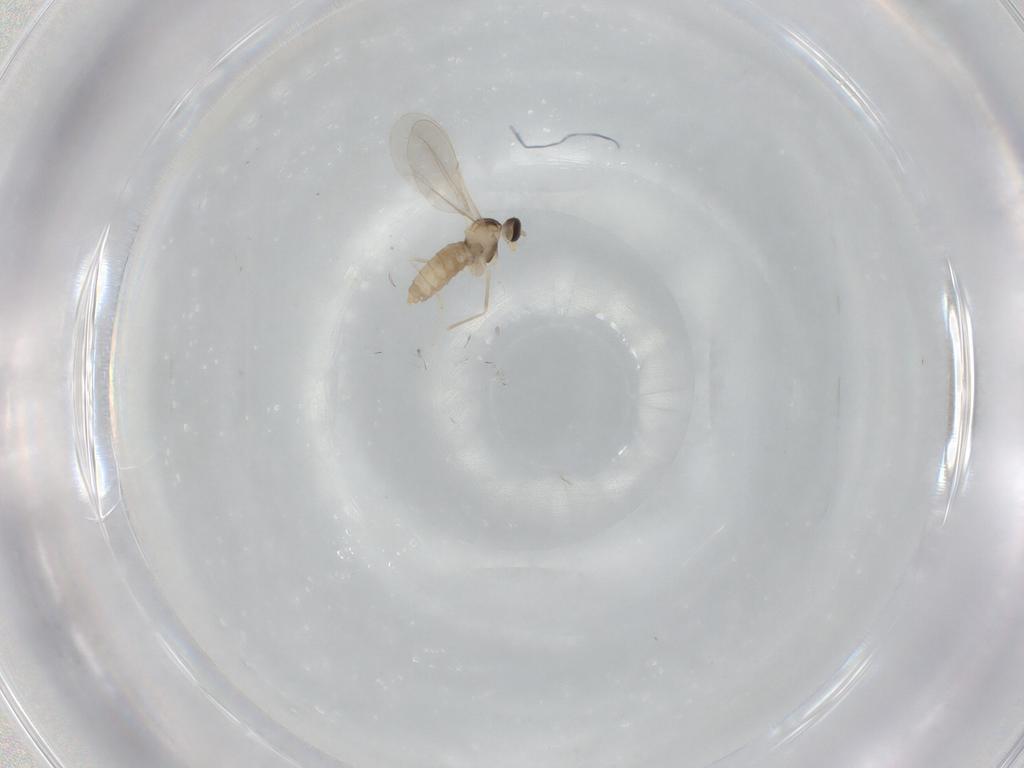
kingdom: Animalia
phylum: Arthropoda
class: Insecta
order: Diptera
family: Cecidomyiidae
